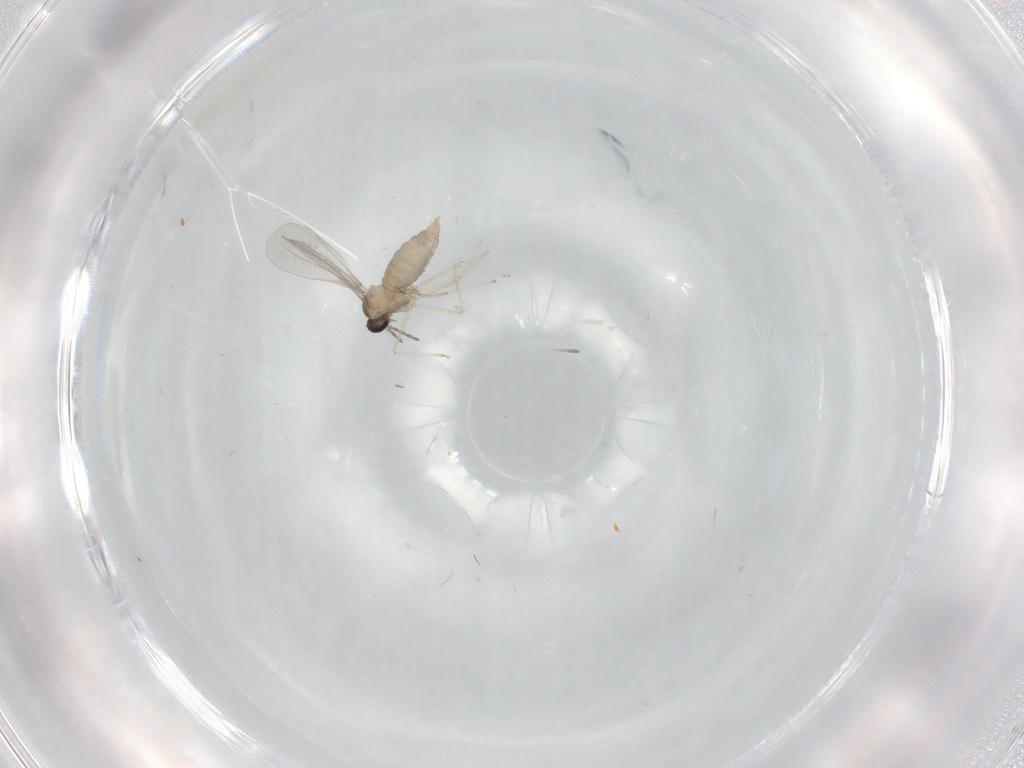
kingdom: Animalia
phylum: Arthropoda
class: Insecta
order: Diptera
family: Cecidomyiidae
